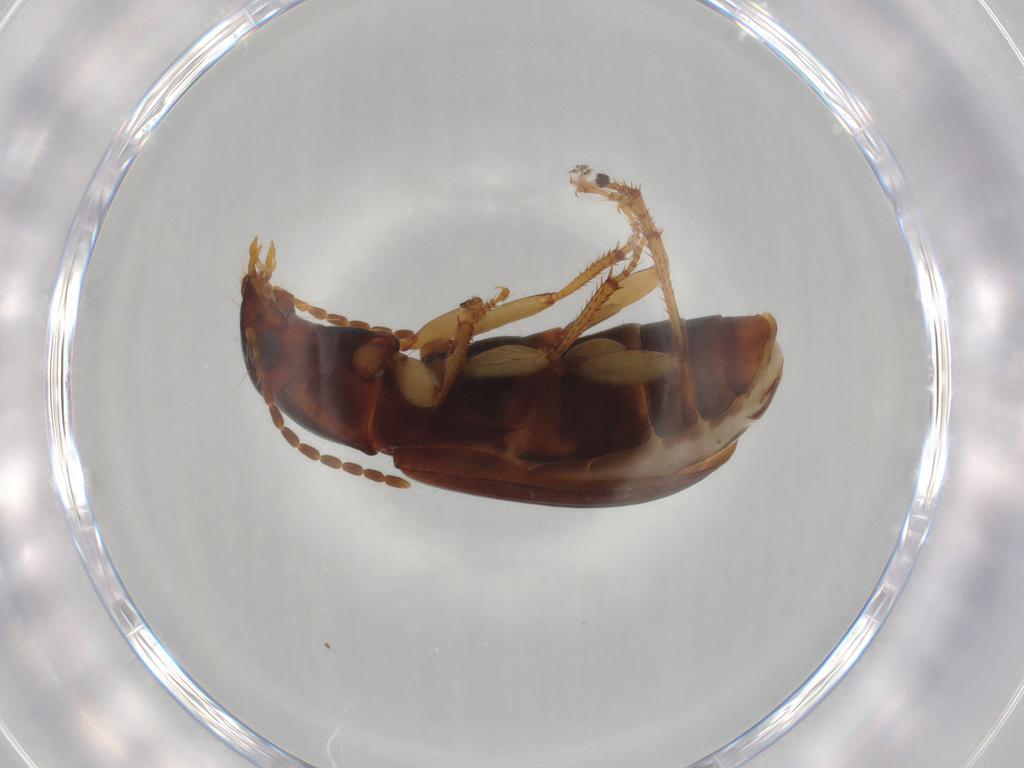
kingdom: Animalia
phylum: Arthropoda
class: Insecta
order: Coleoptera
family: Carabidae
